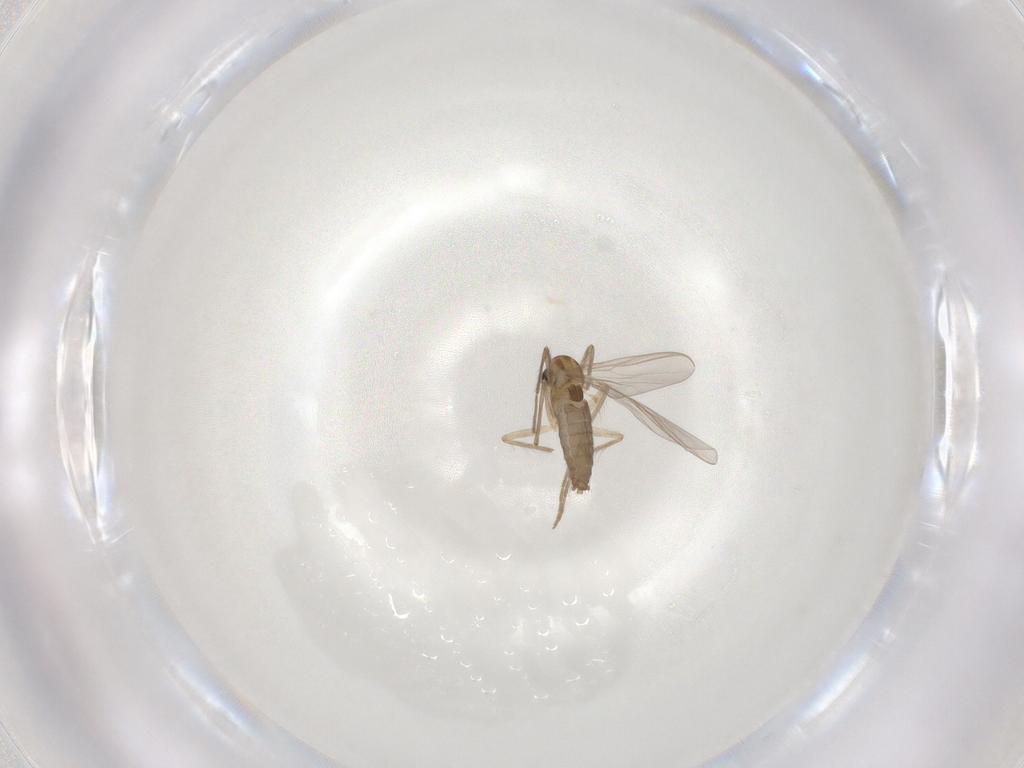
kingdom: Animalia
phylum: Arthropoda
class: Insecta
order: Diptera
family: Chironomidae
